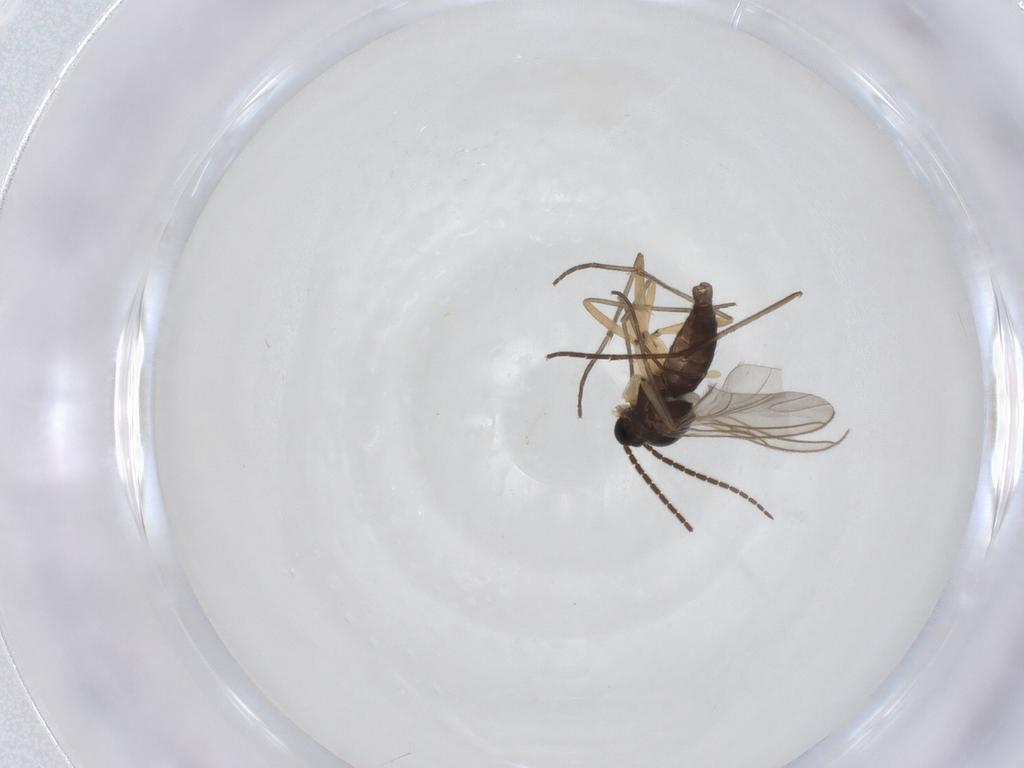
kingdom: Animalia
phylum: Arthropoda
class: Insecta
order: Diptera
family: Sciaridae
